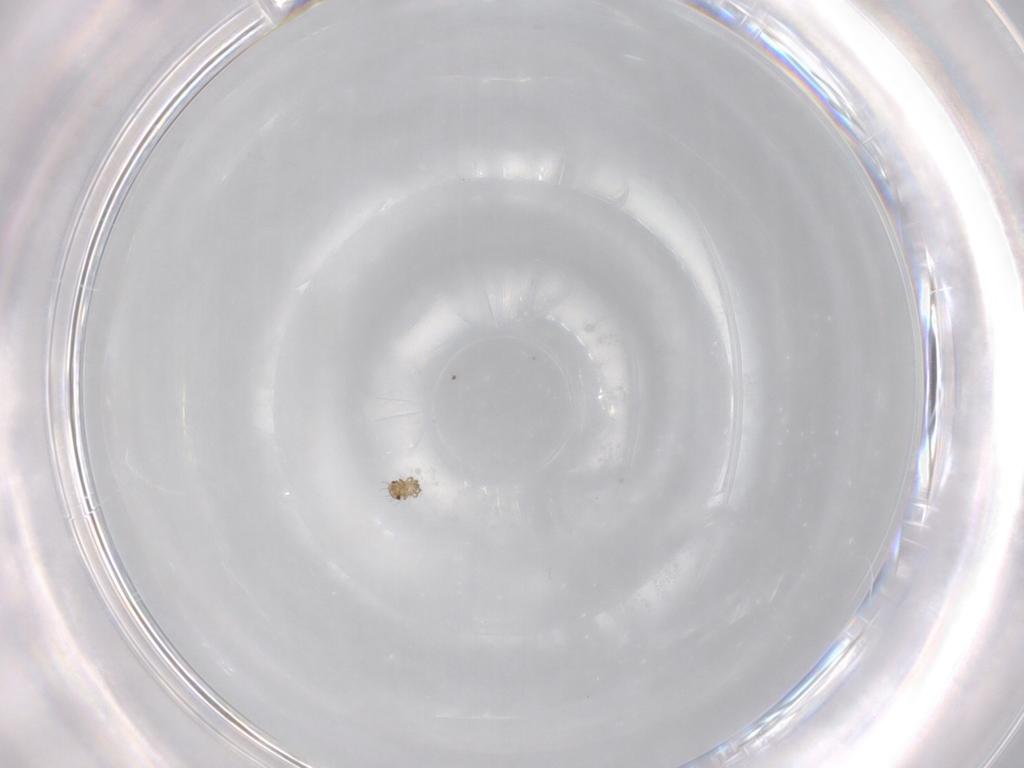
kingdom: Animalia
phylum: Arthropoda
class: Arachnida
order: Sarcoptiformes
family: Ceratozetidae
